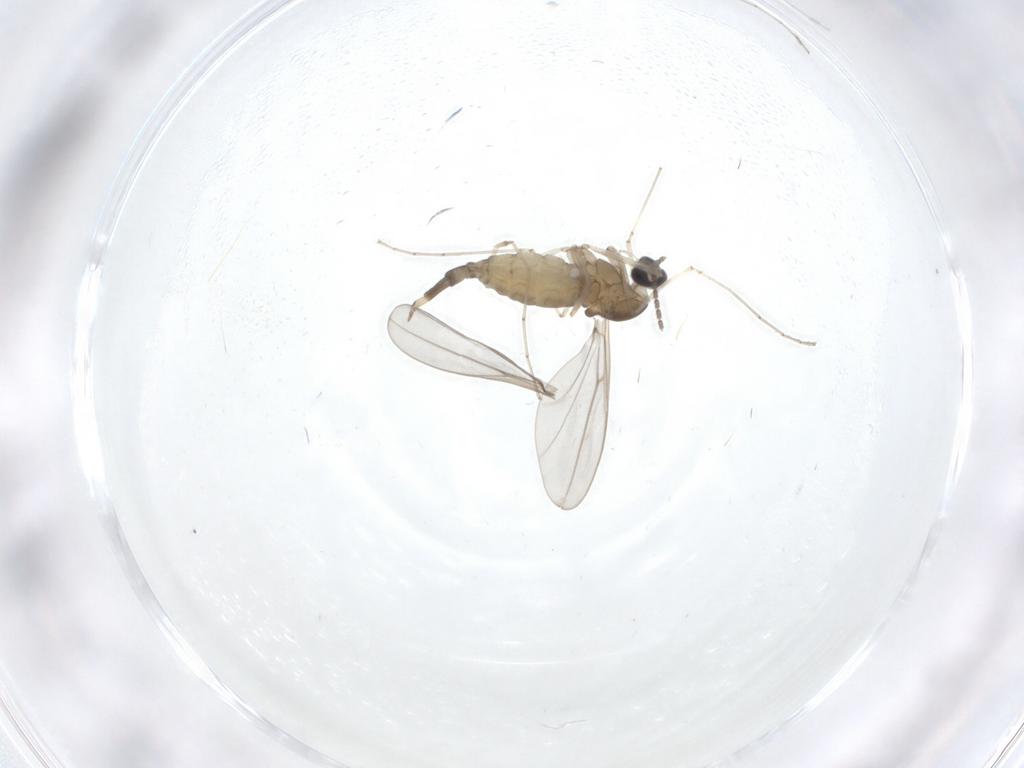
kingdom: Animalia
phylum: Arthropoda
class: Insecta
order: Diptera
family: Cecidomyiidae
